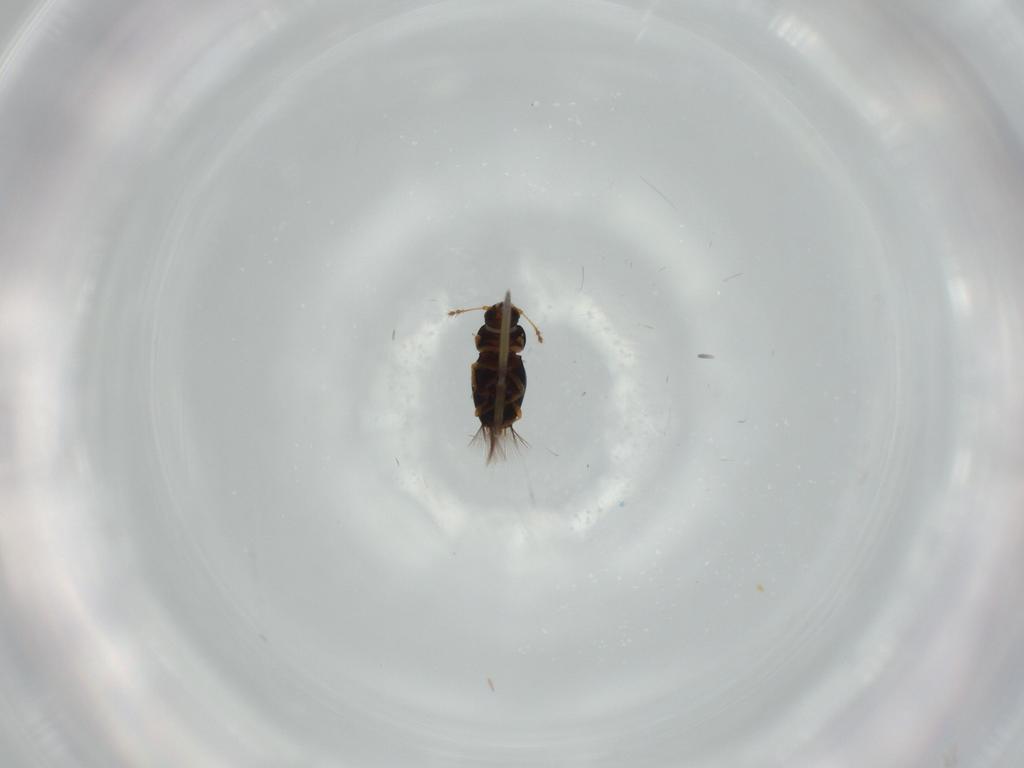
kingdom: Animalia
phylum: Arthropoda
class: Insecta
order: Coleoptera
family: Ptiliidae
